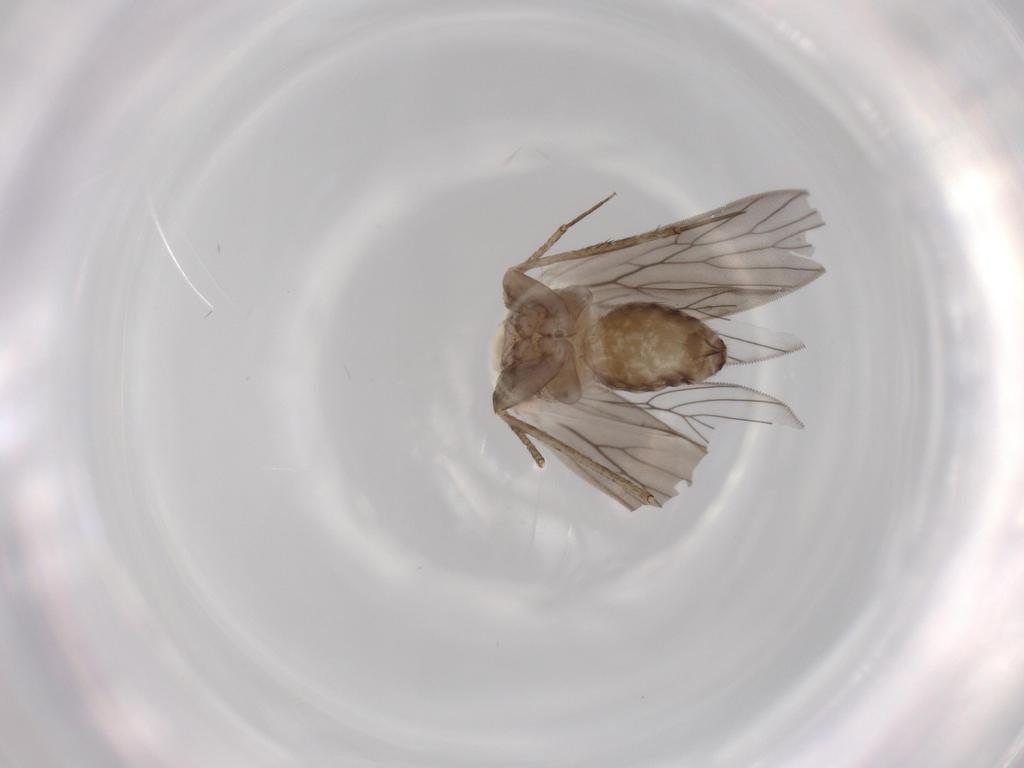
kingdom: Animalia
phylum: Arthropoda
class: Insecta
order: Psocodea
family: Lepidopsocidae
